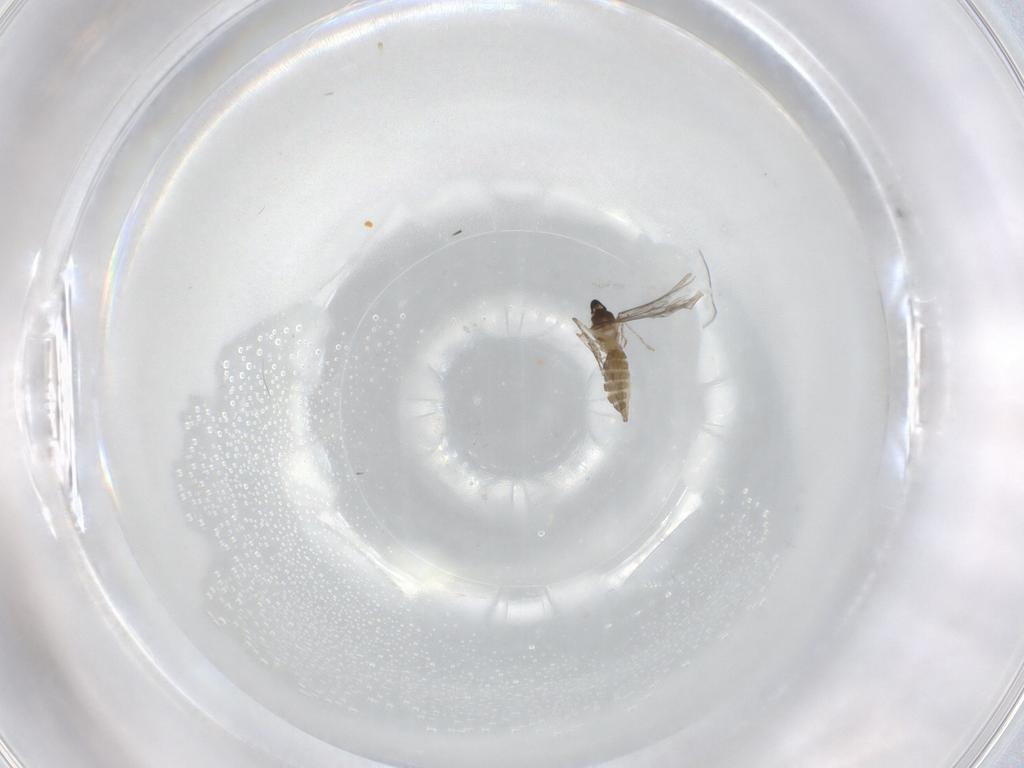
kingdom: Animalia
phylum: Arthropoda
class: Insecta
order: Diptera
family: Cecidomyiidae
